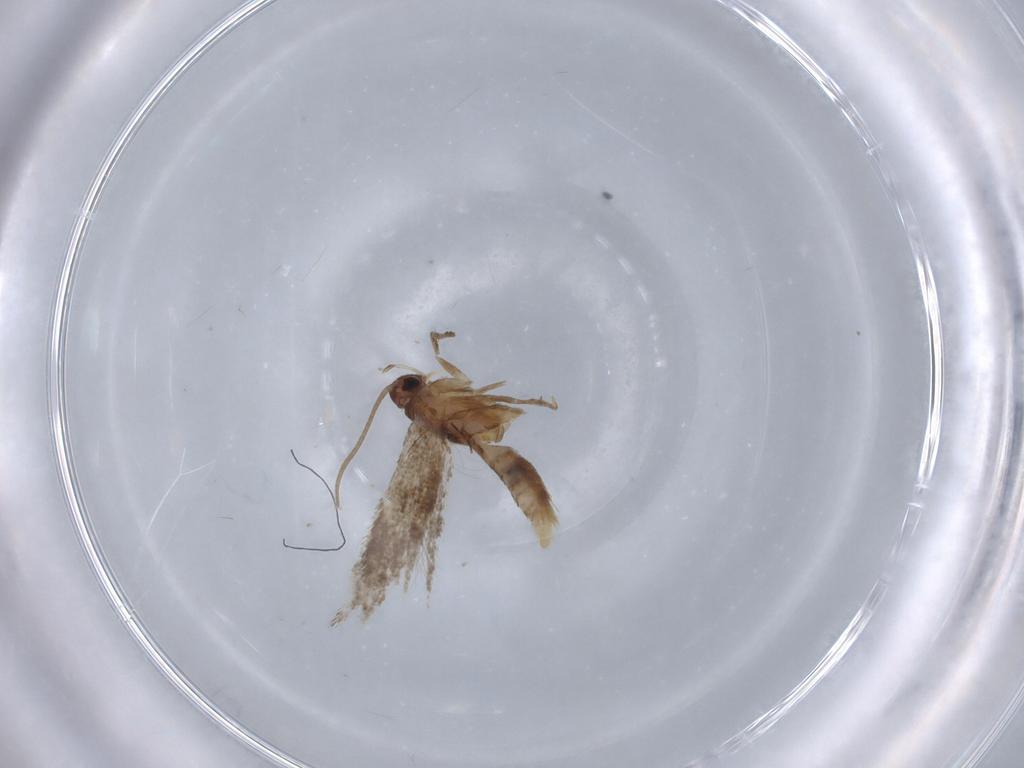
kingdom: Animalia
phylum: Arthropoda
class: Insecta
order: Lepidoptera
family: Elachistidae
